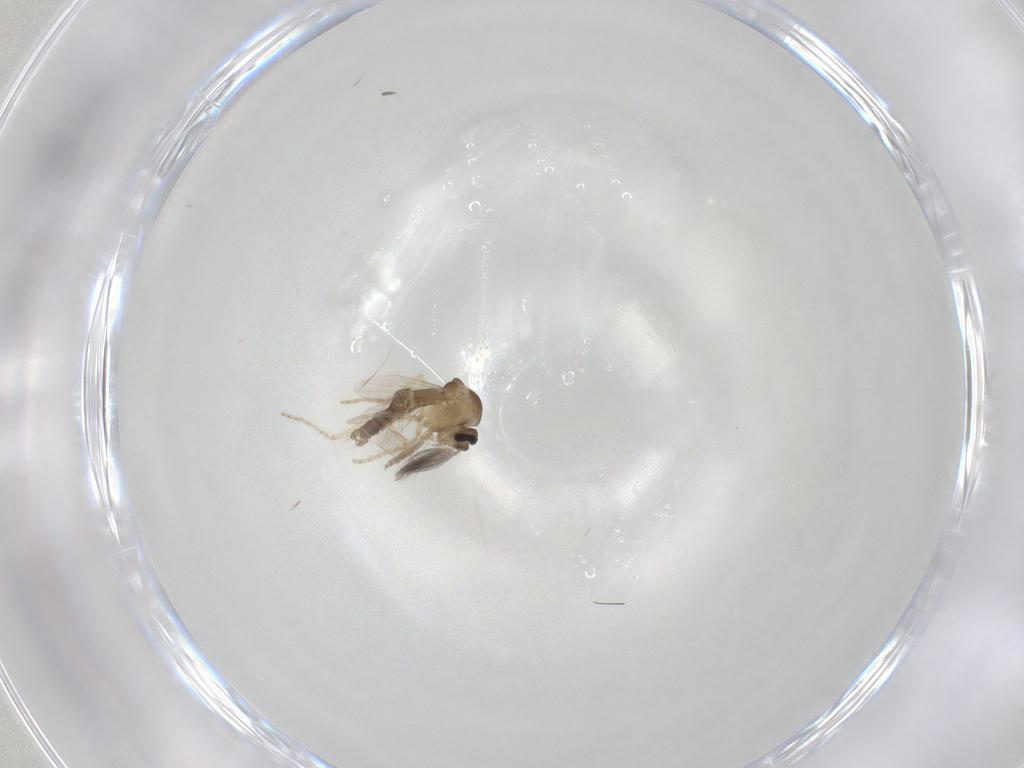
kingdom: Animalia
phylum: Arthropoda
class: Insecta
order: Diptera
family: Ceratopogonidae
